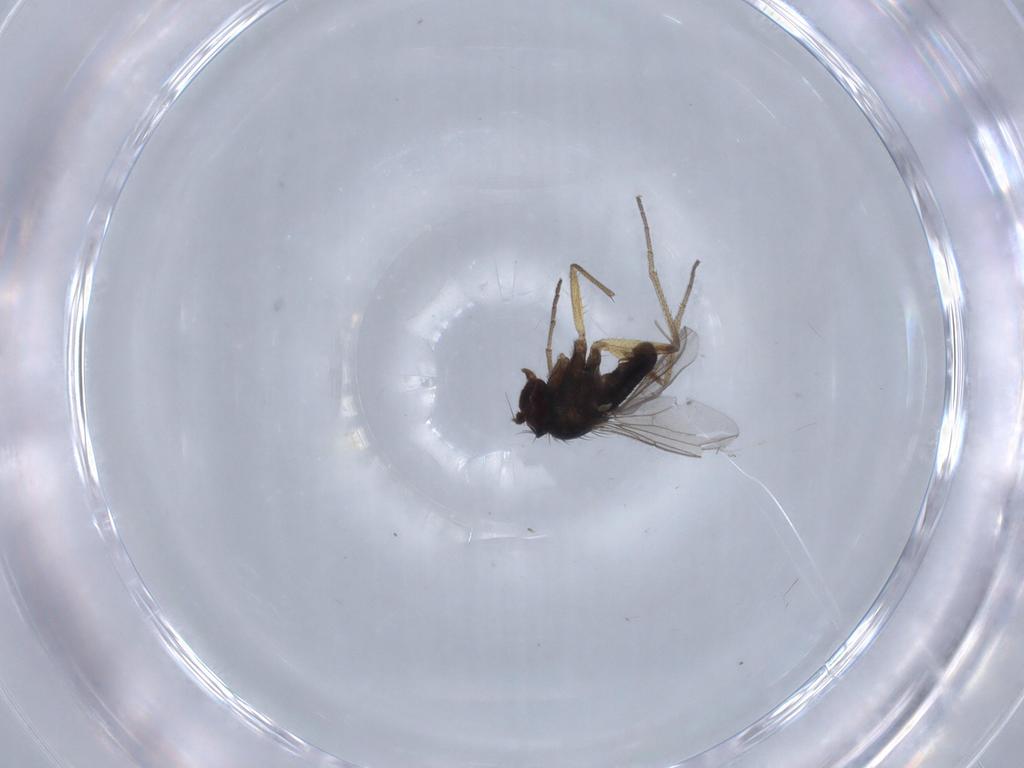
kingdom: Animalia
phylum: Arthropoda
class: Insecta
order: Diptera
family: Dolichopodidae
